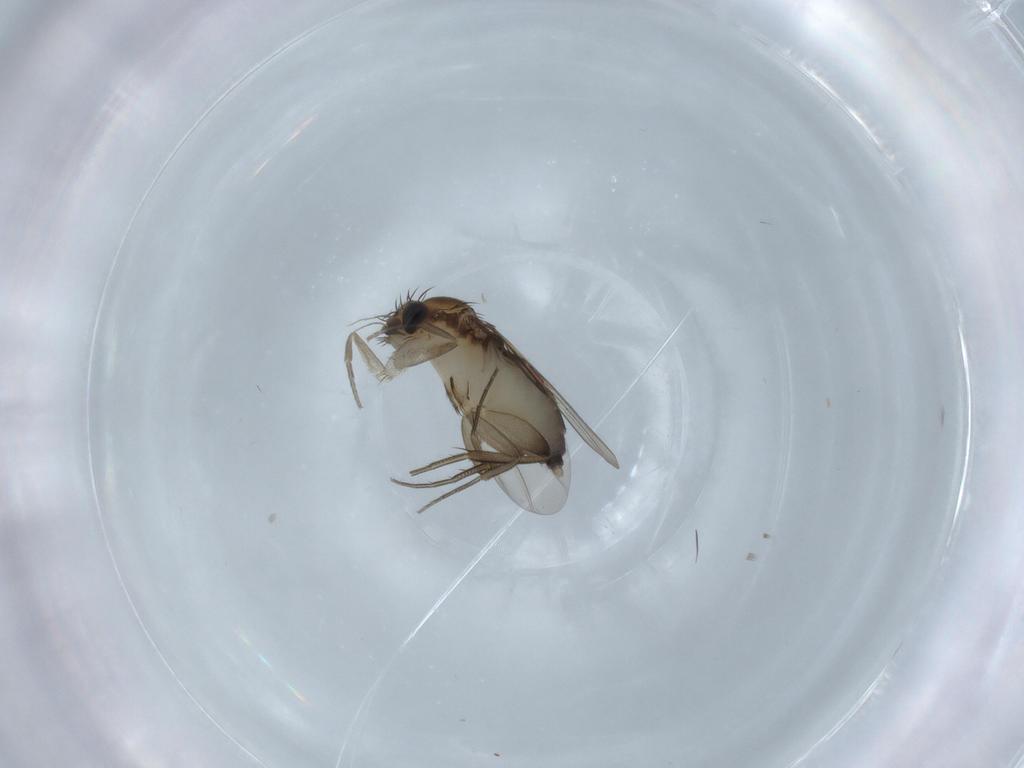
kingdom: Animalia
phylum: Arthropoda
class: Insecta
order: Diptera
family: Phoridae
